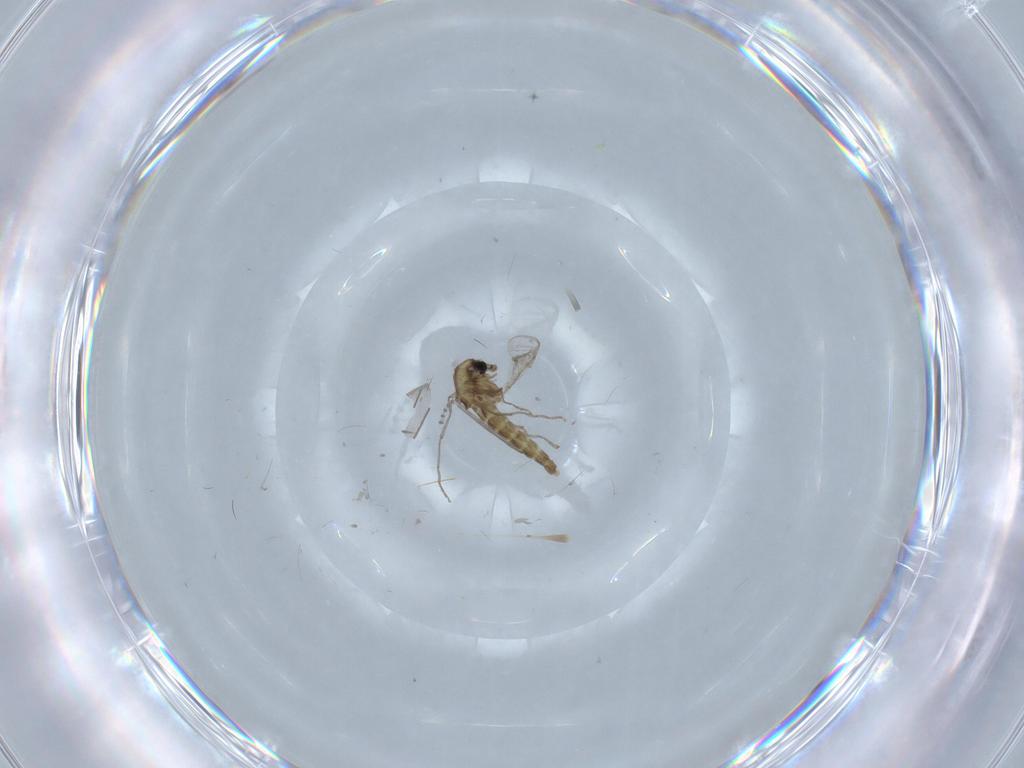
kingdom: Animalia
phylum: Arthropoda
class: Insecta
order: Diptera
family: Chironomidae
